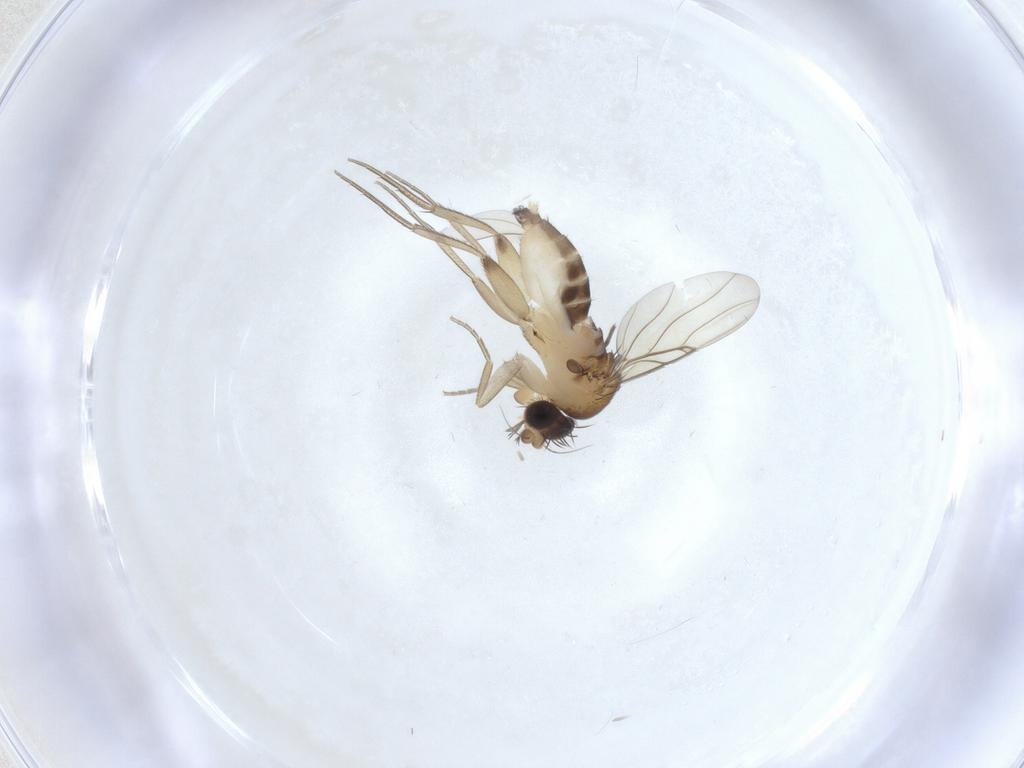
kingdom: Animalia
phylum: Arthropoda
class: Insecta
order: Diptera
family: Phoridae
